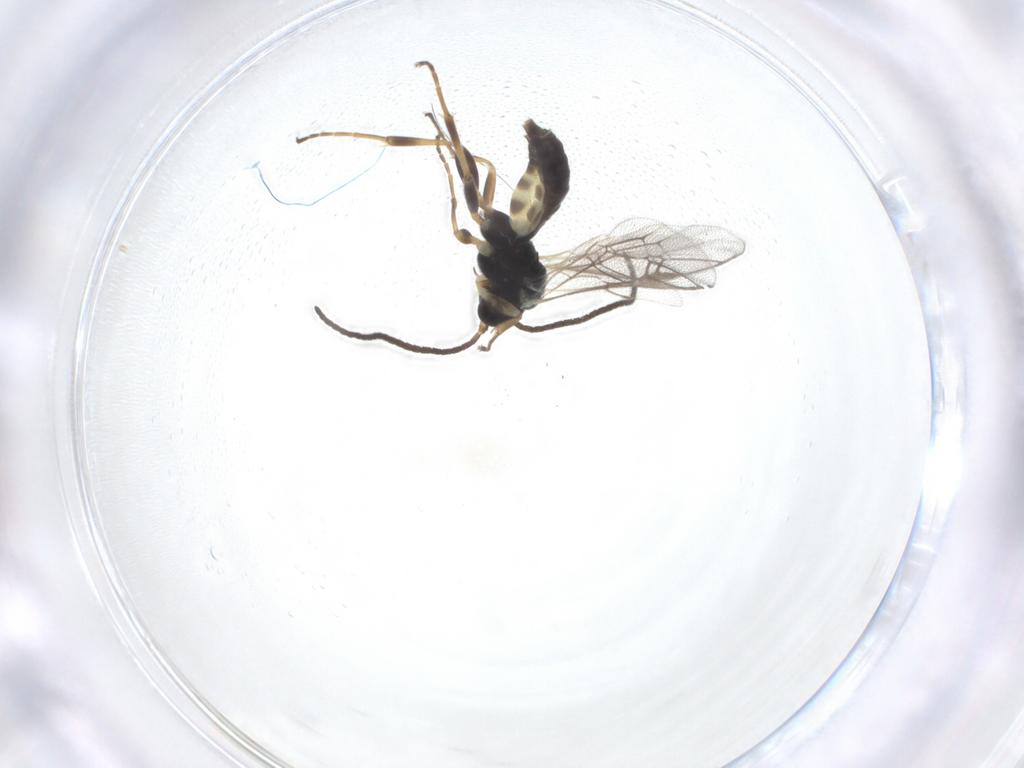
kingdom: Animalia
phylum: Arthropoda
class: Insecta
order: Hymenoptera
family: Ichneumonidae
